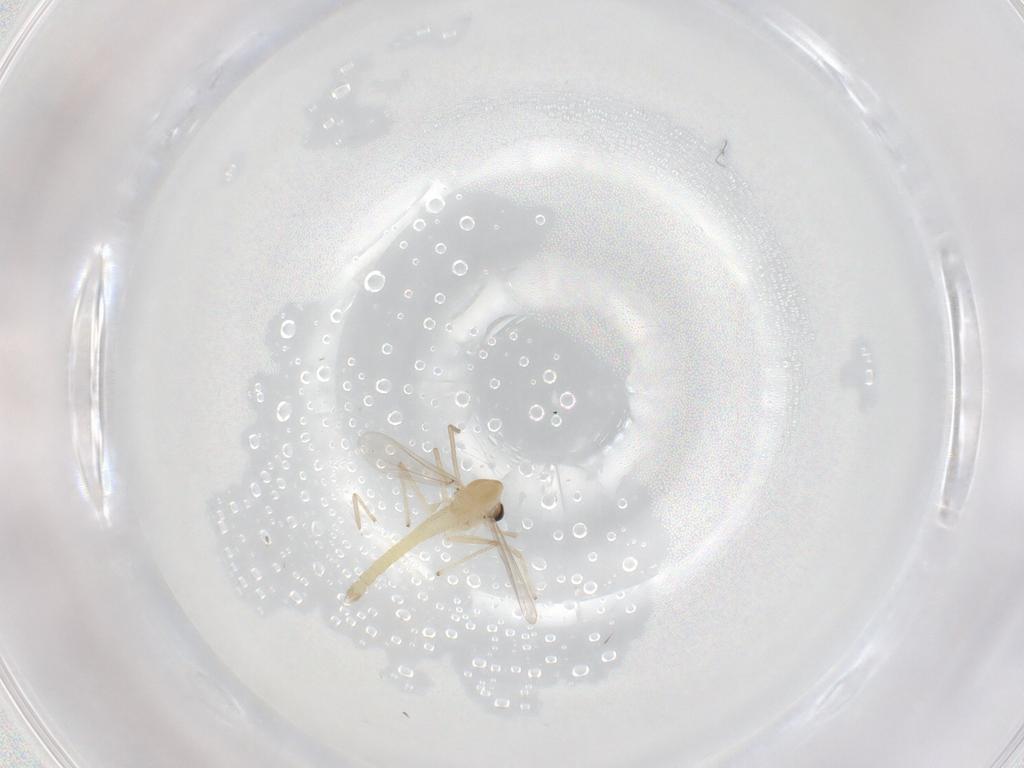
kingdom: Animalia
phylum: Arthropoda
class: Insecta
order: Diptera
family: Chironomidae
